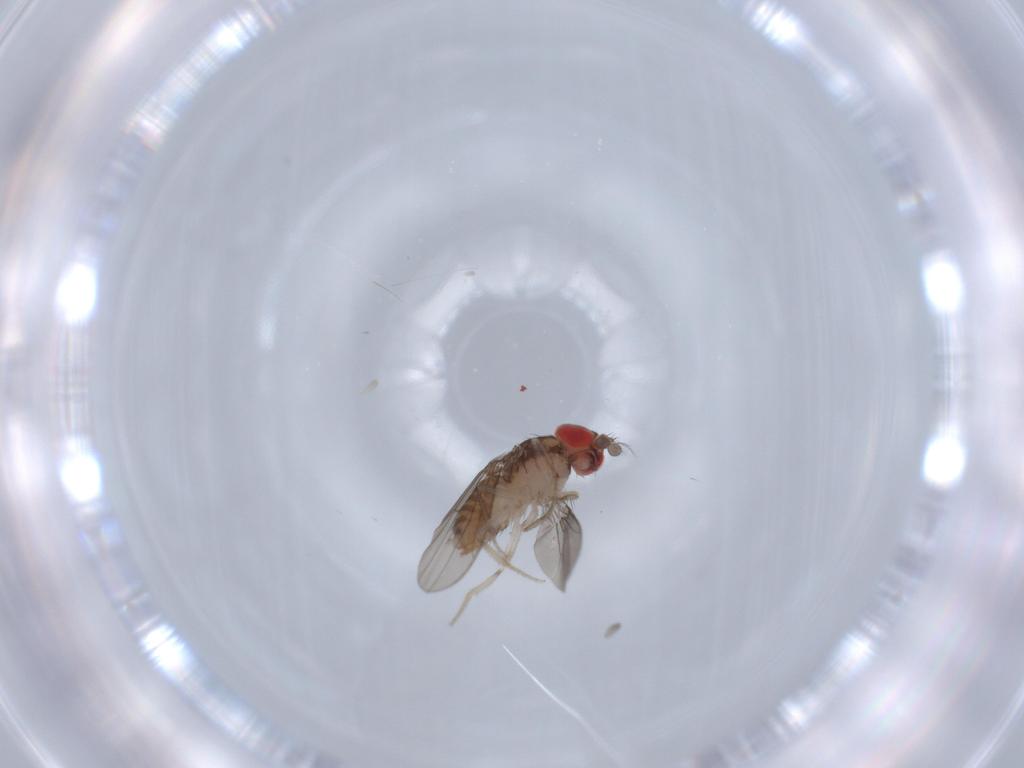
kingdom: Animalia
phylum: Arthropoda
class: Insecta
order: Diptera
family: Drosophilidae
